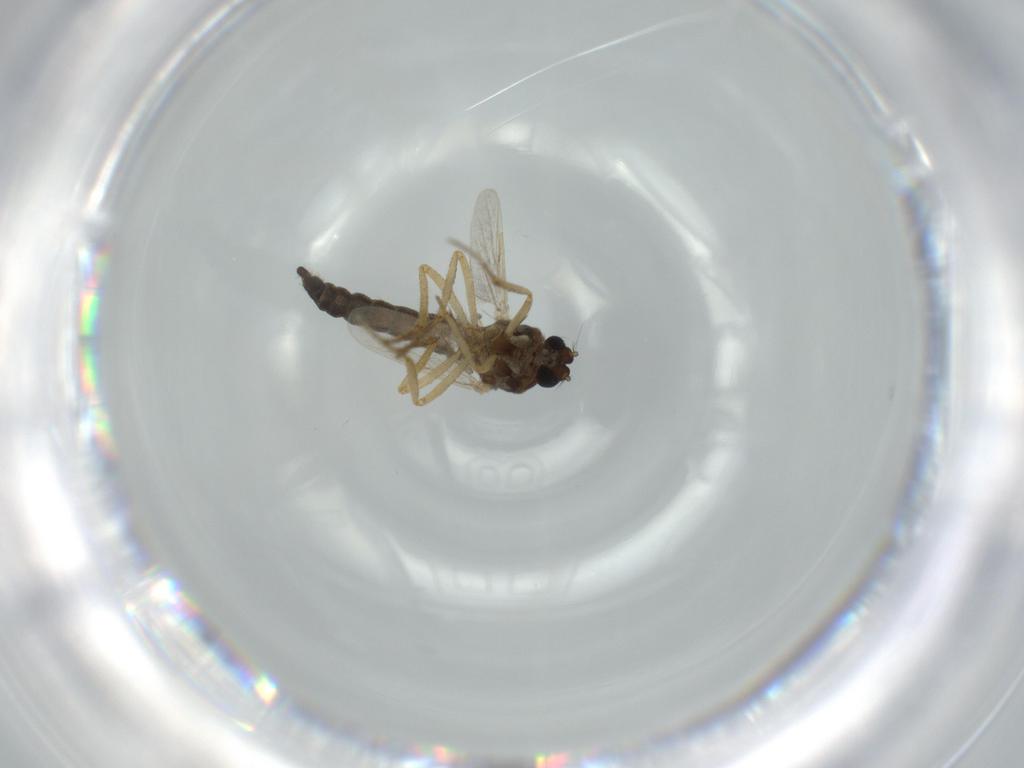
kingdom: Animalia
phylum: Arthropoda
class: Insecta
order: Diptera
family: Ceratopogonidae
